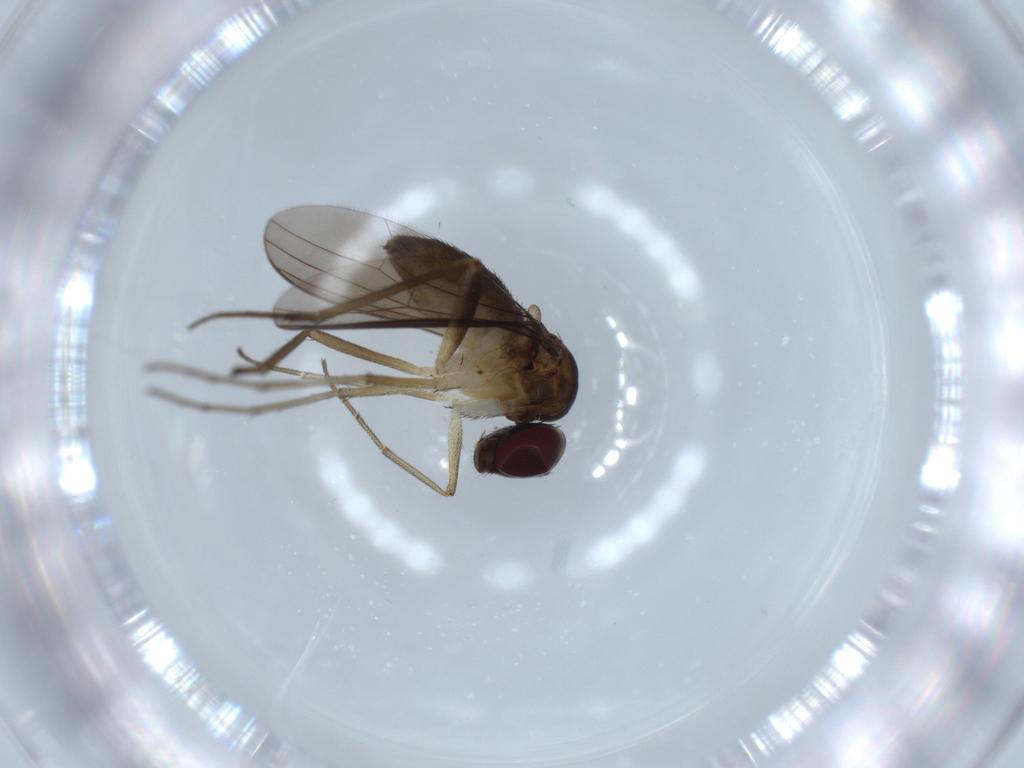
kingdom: Animalia
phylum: Arthropoda
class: Insecta
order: Diptera
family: Dolichopodidae
